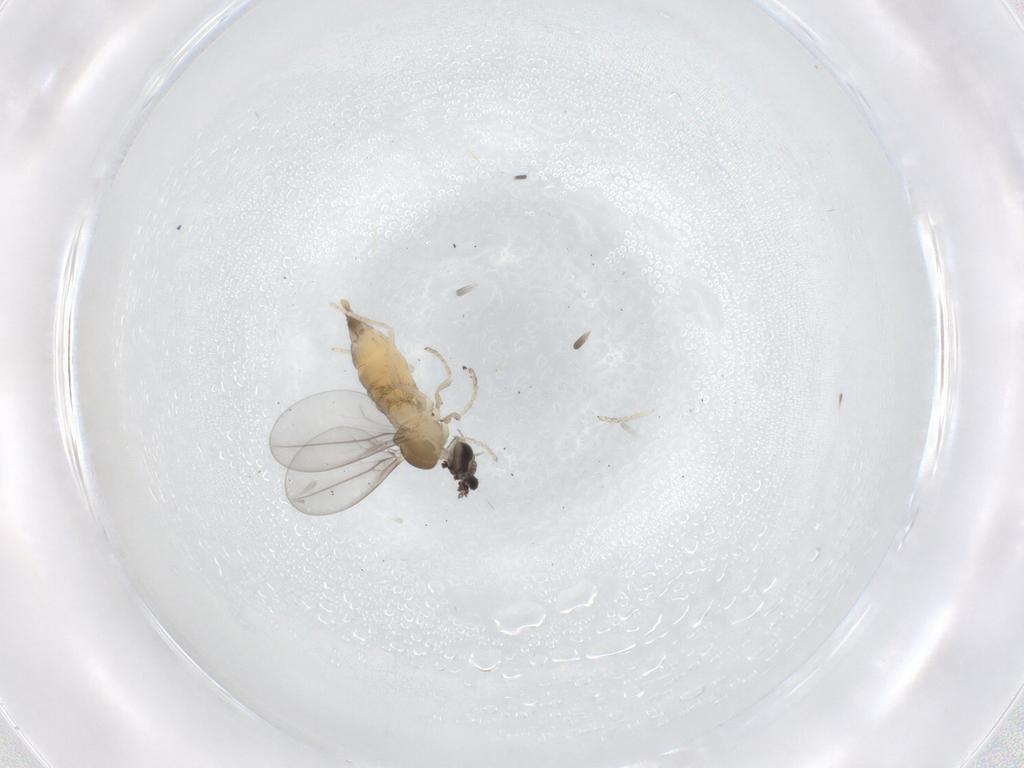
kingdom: Animalia
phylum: Arthropoda
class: Insecta
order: Diptera
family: Cecidomyiidae
